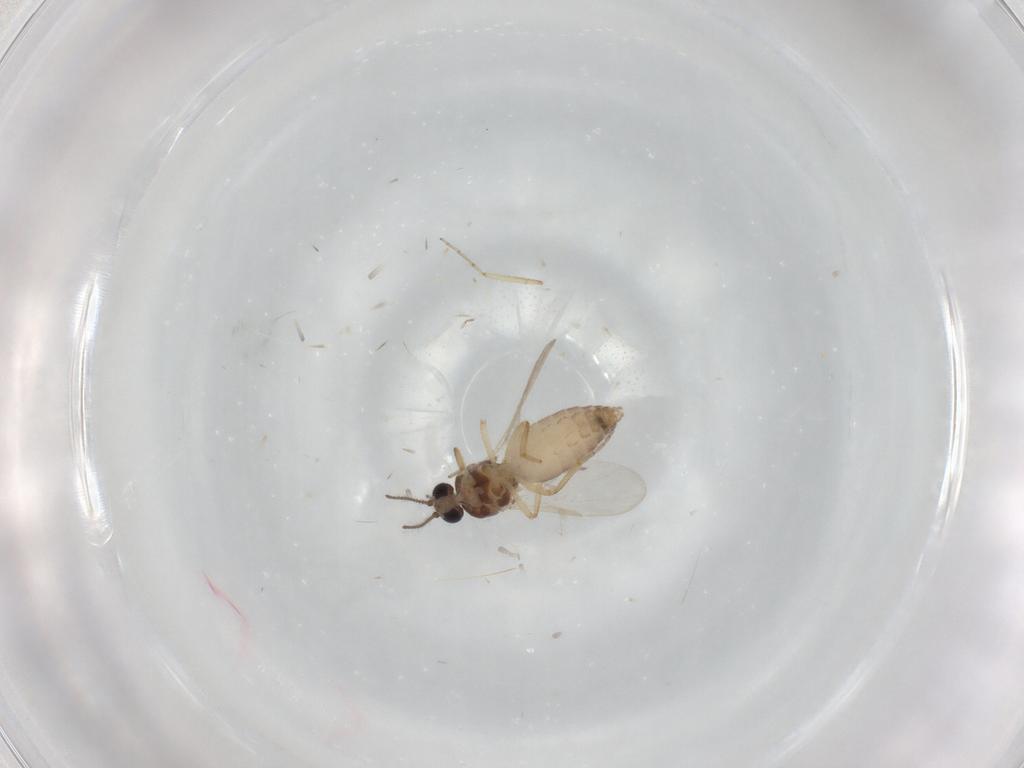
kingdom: Animalia
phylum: Arthropoda
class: Insecta
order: Diptera
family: Ceratopogonidae
